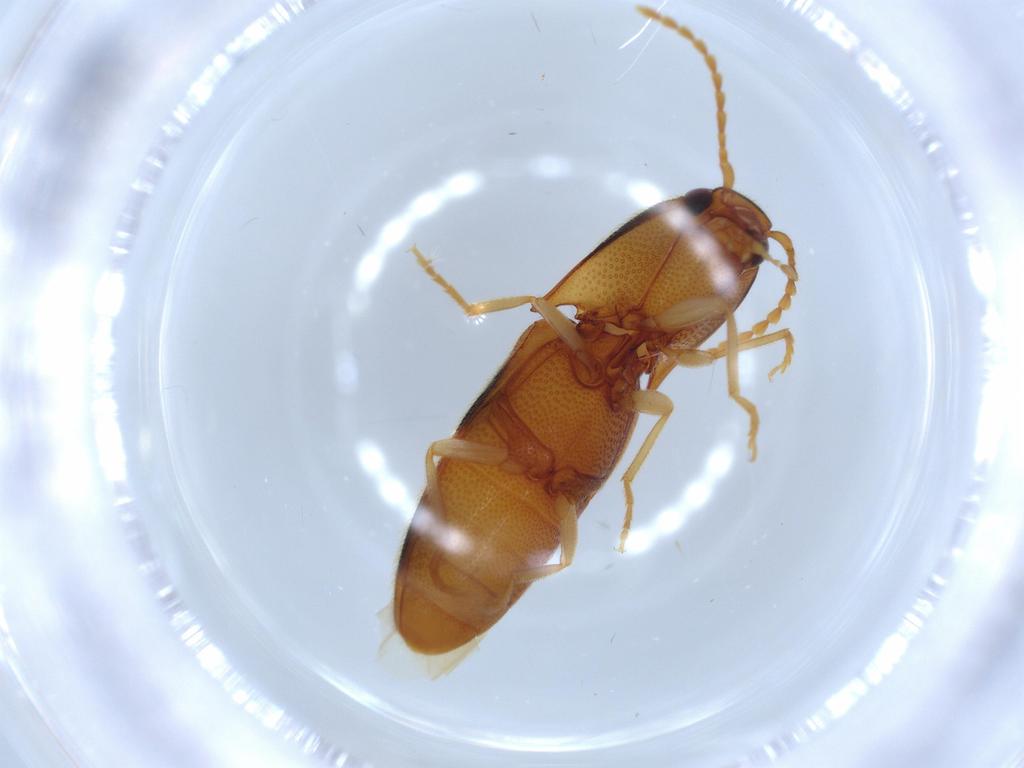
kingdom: Animalia
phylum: Arthropoda
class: Insecta
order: Coleoptera
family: Elateridae
